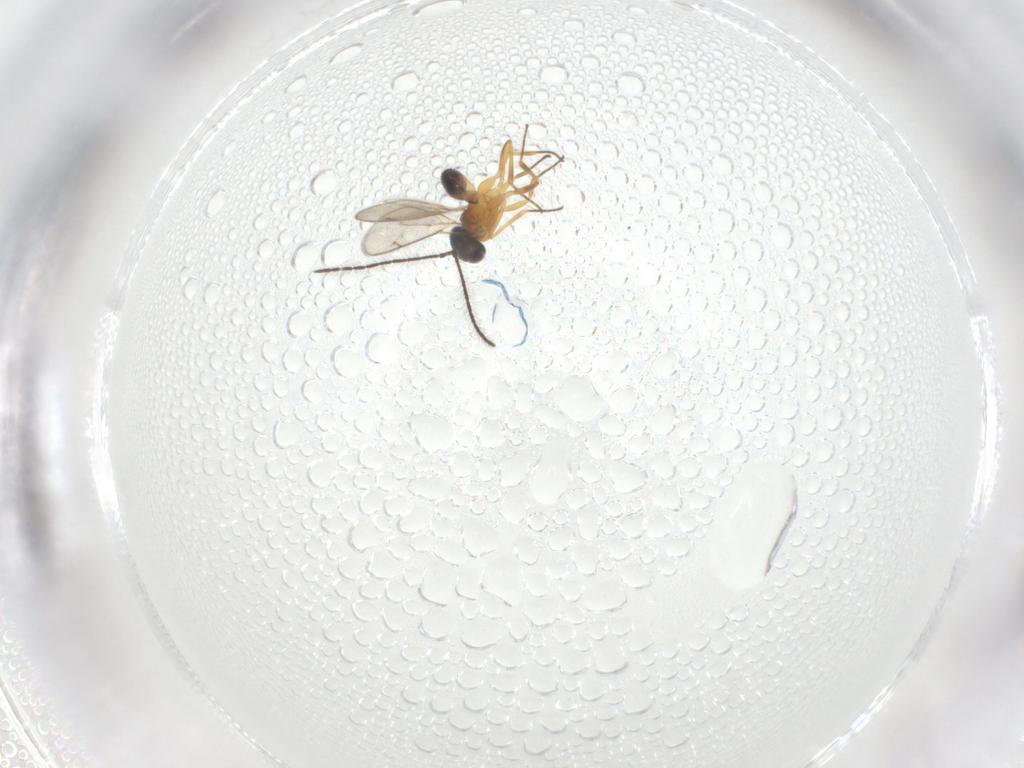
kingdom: Animalia
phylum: Arthropoda
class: Insecta
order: Hymenoptera
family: Eupelmidae
